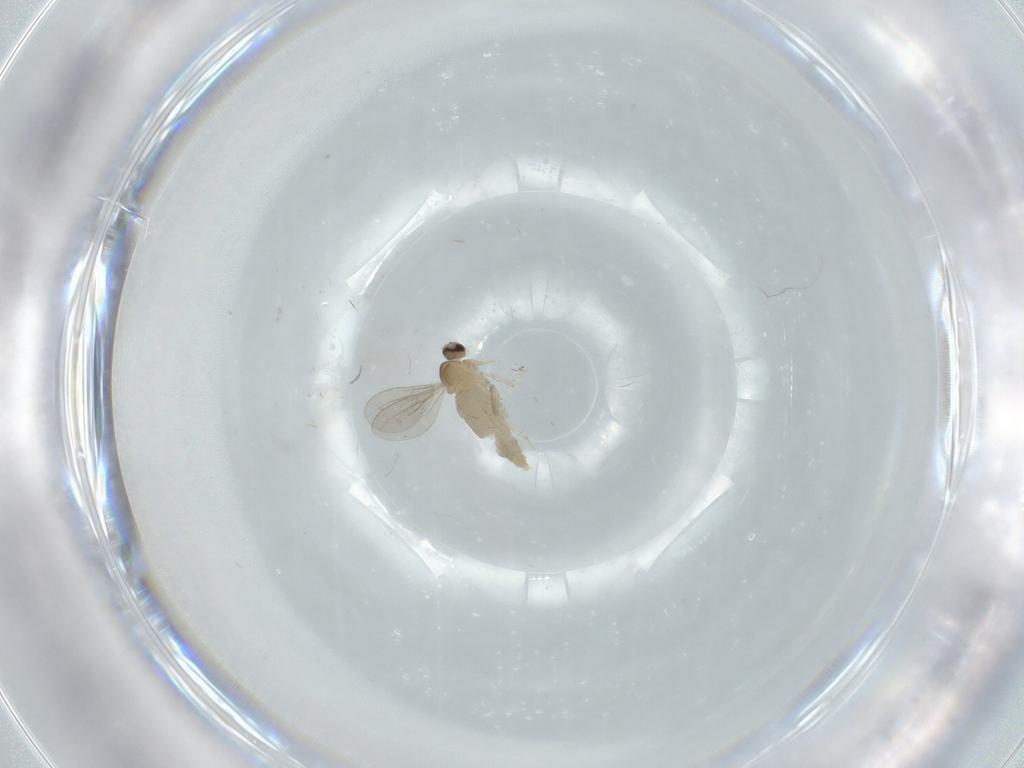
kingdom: Animalia
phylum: Arthropoda
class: Insecta
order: Diptera
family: Cecidomyiidae
